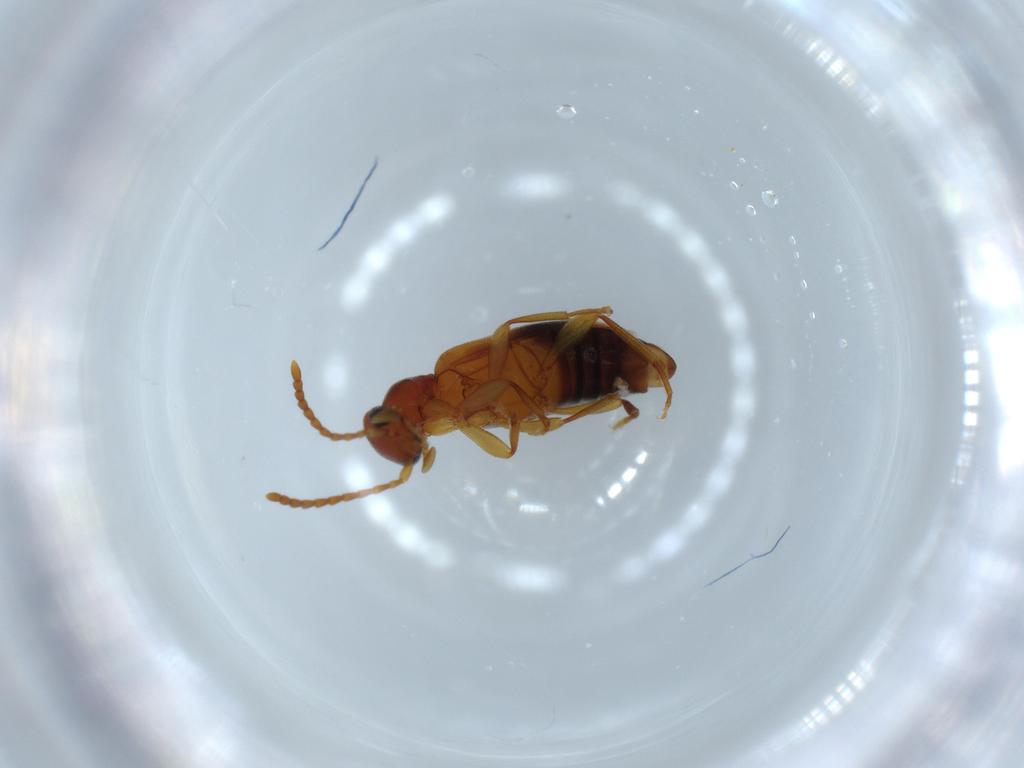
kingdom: Animalia
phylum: Arthropoda
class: Insecta
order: Coleoptera
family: Anthicidae
